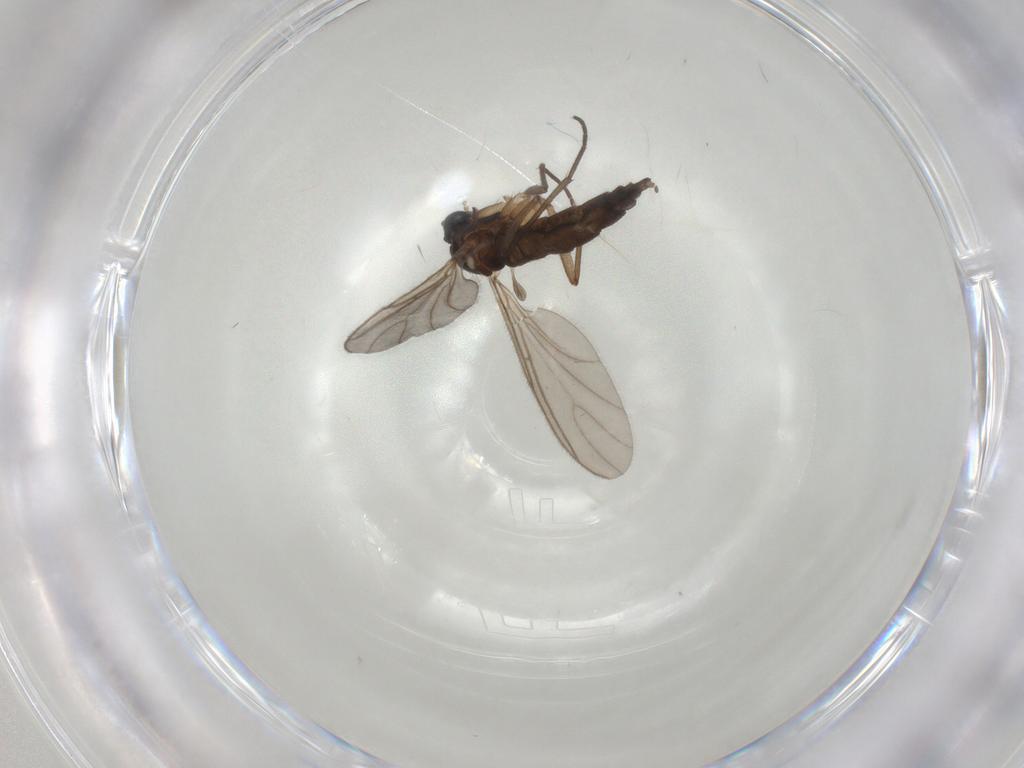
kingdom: Animalia
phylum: Arthropoda
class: Insecta
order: Diptera
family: Sciaridae
